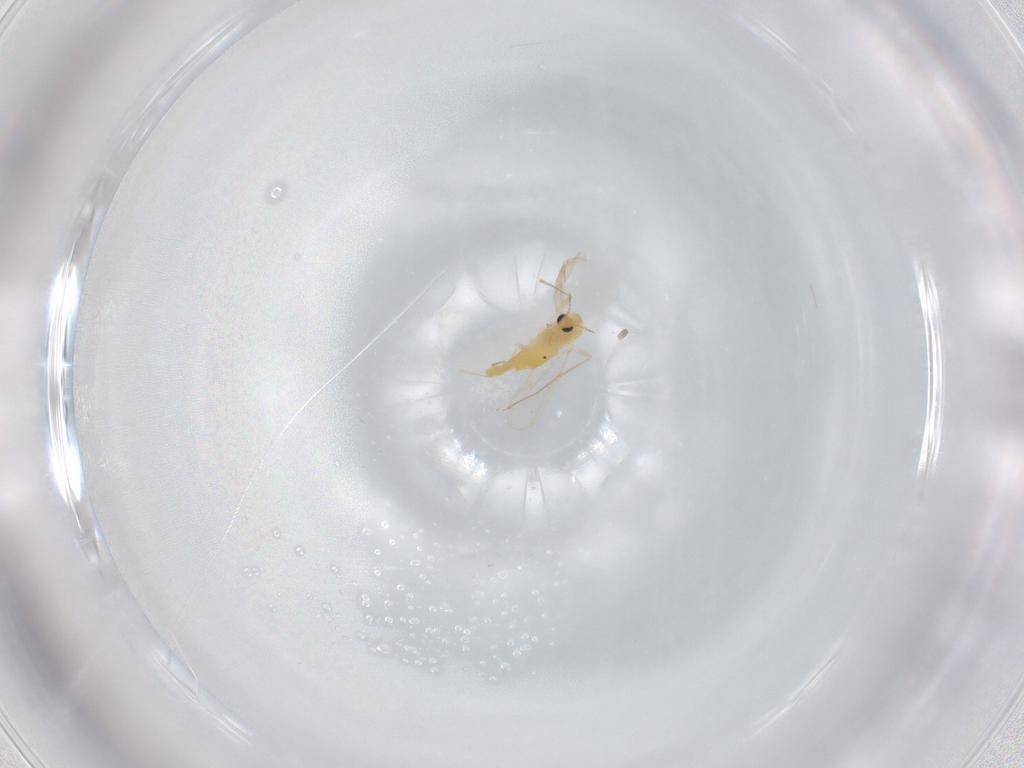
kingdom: Animalia
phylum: Arthropoda
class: Insecta
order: Diptera
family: Chironomidae
